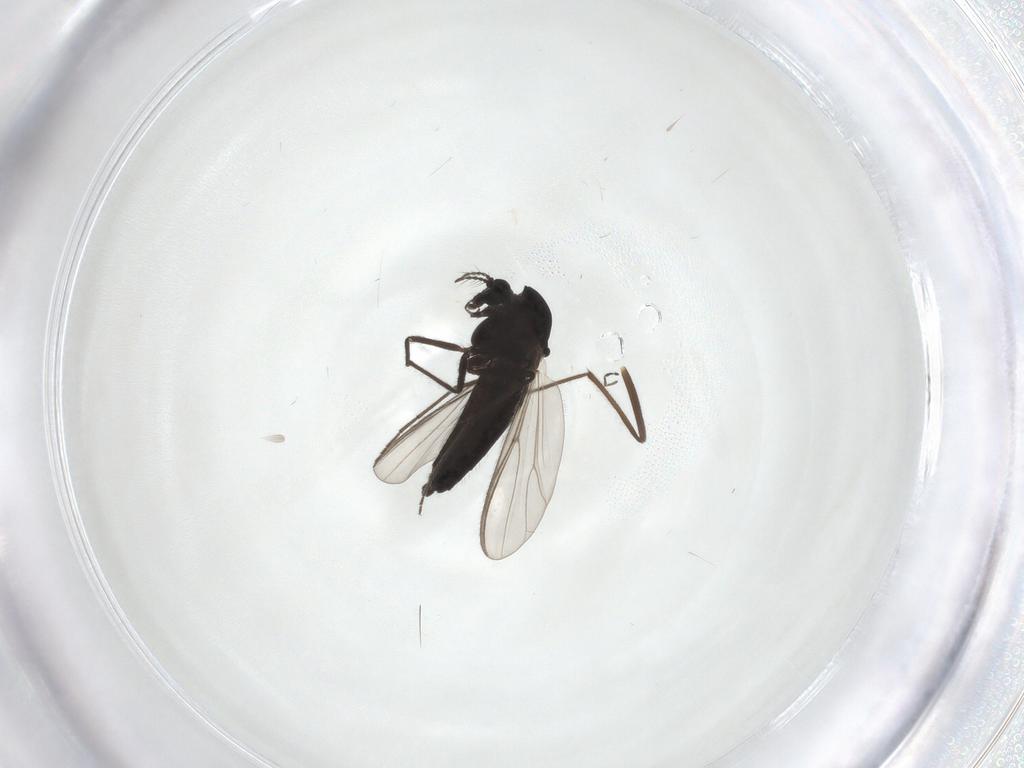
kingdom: Animalia
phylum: Arthropoda
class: Insecta
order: Diptera
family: Chironomidae
